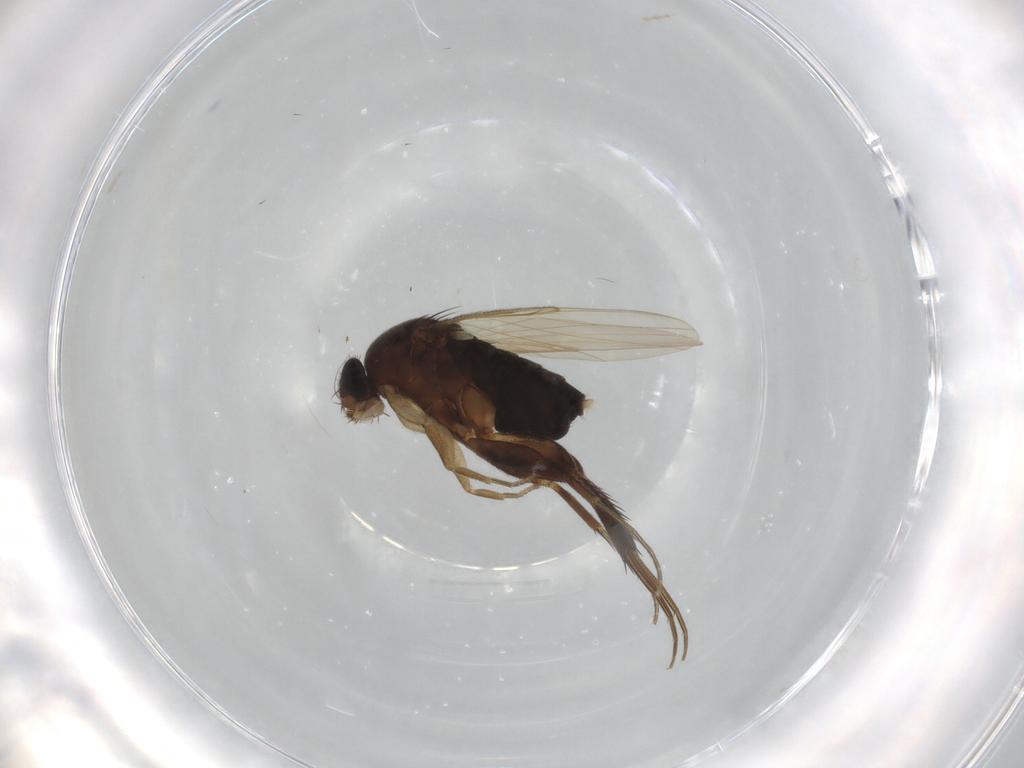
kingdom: Animalia
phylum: Arthropoda
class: Insecta
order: Diptera
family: Phoridae
